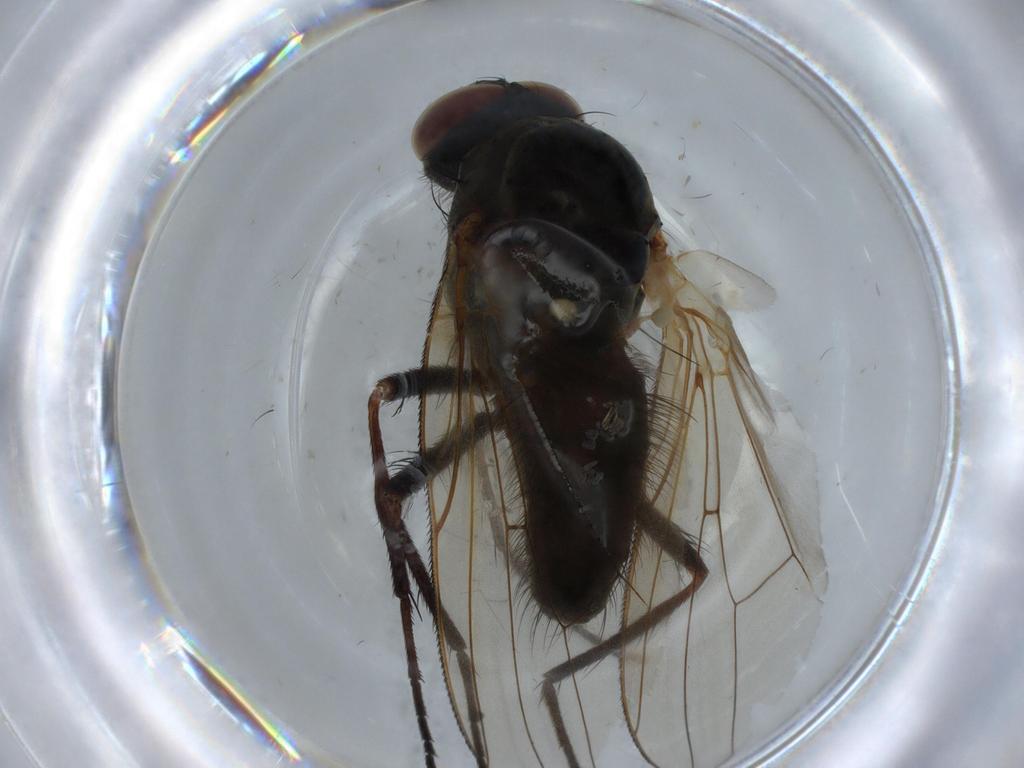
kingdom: Animalia
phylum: Arthropoda
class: Insecta
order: Diptera
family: Anthomyiidae
